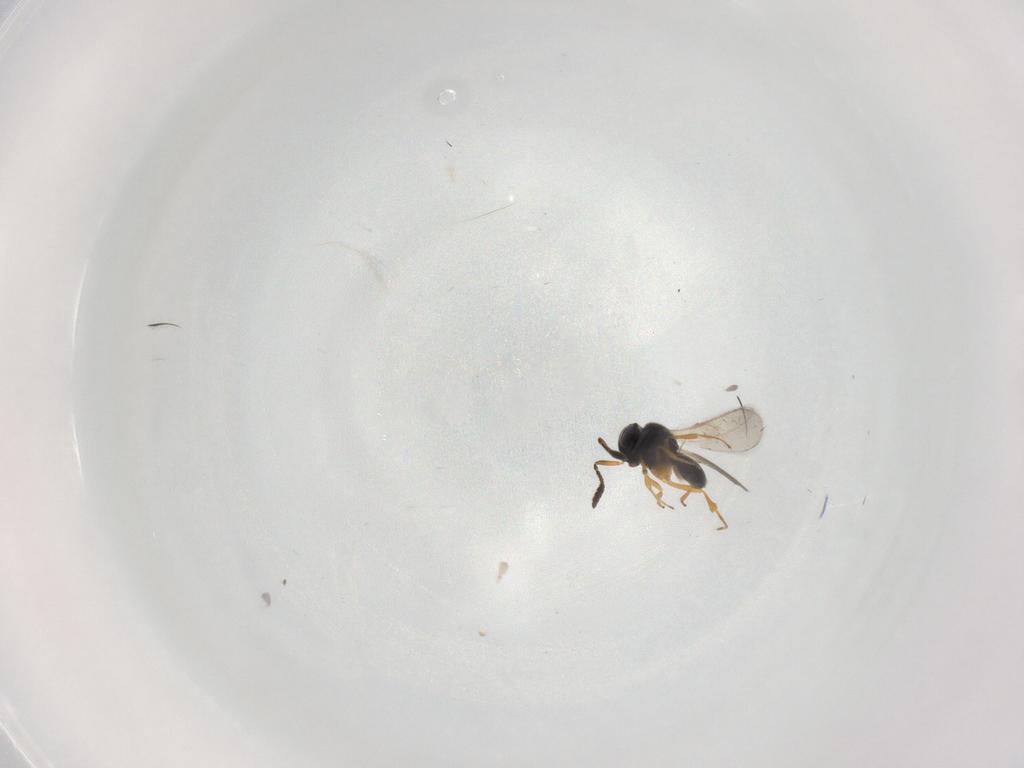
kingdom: Animalia
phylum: Arthropoda
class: Insecta
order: Hymenoptera
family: Scelionidae
